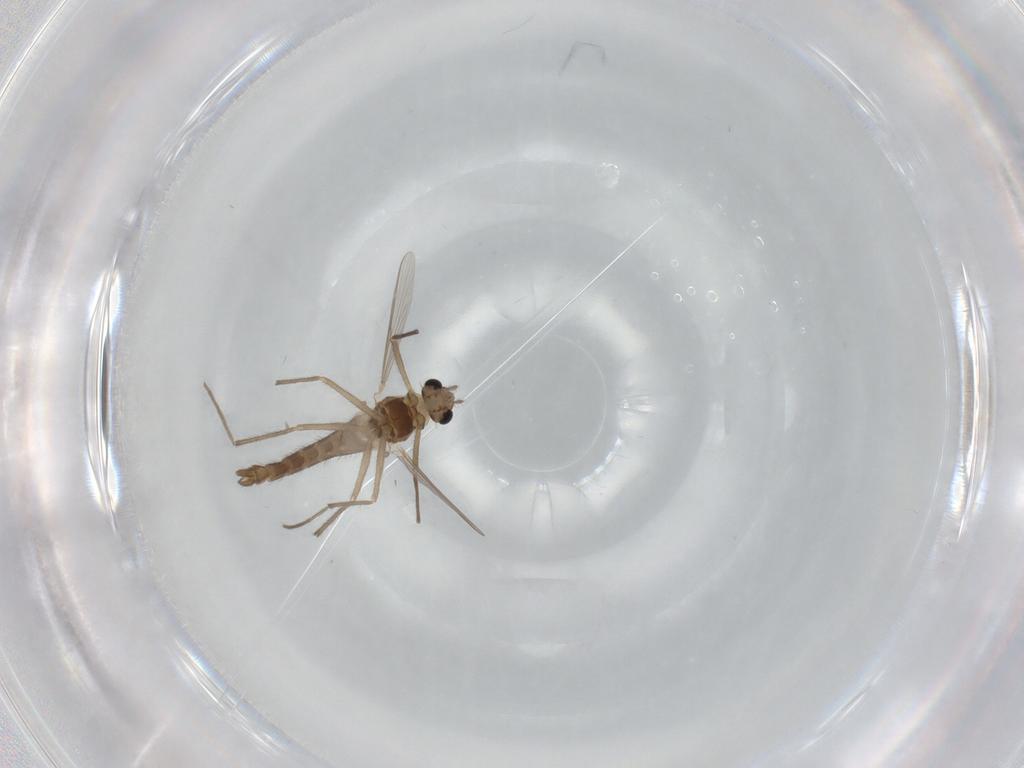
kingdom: Animalia
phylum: Arthropoda
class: Insecta
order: Diptera
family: Chironomidae
